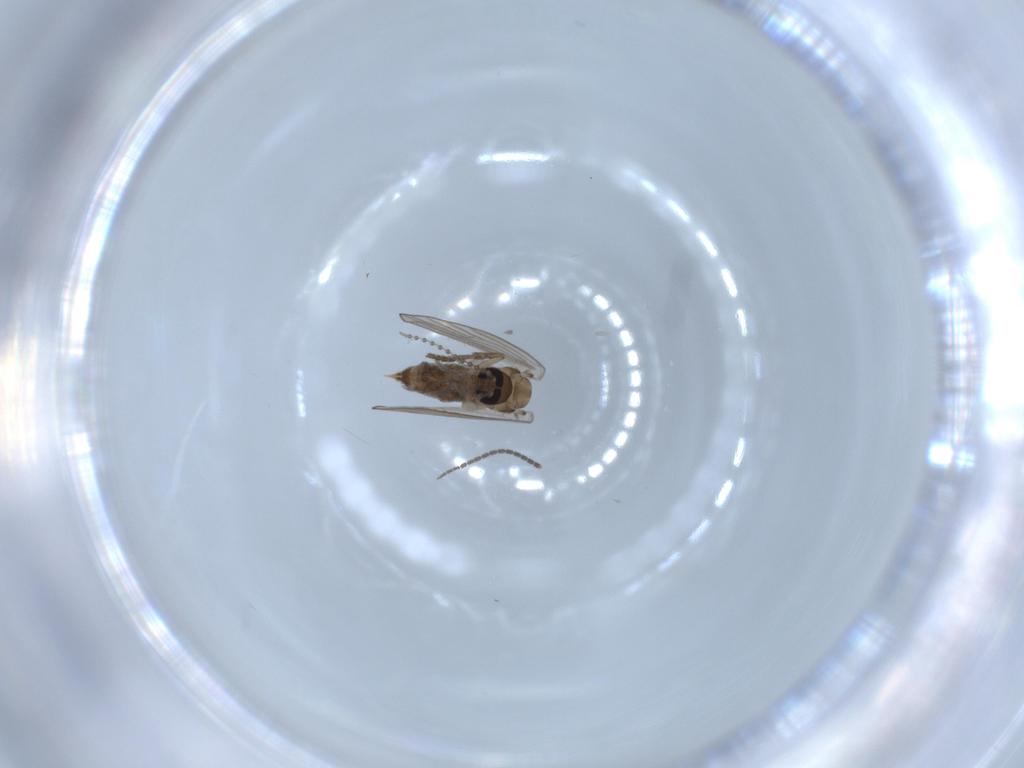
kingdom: Animalia
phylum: Arthropoda
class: Insecta
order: Diptera
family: Psychodidae
